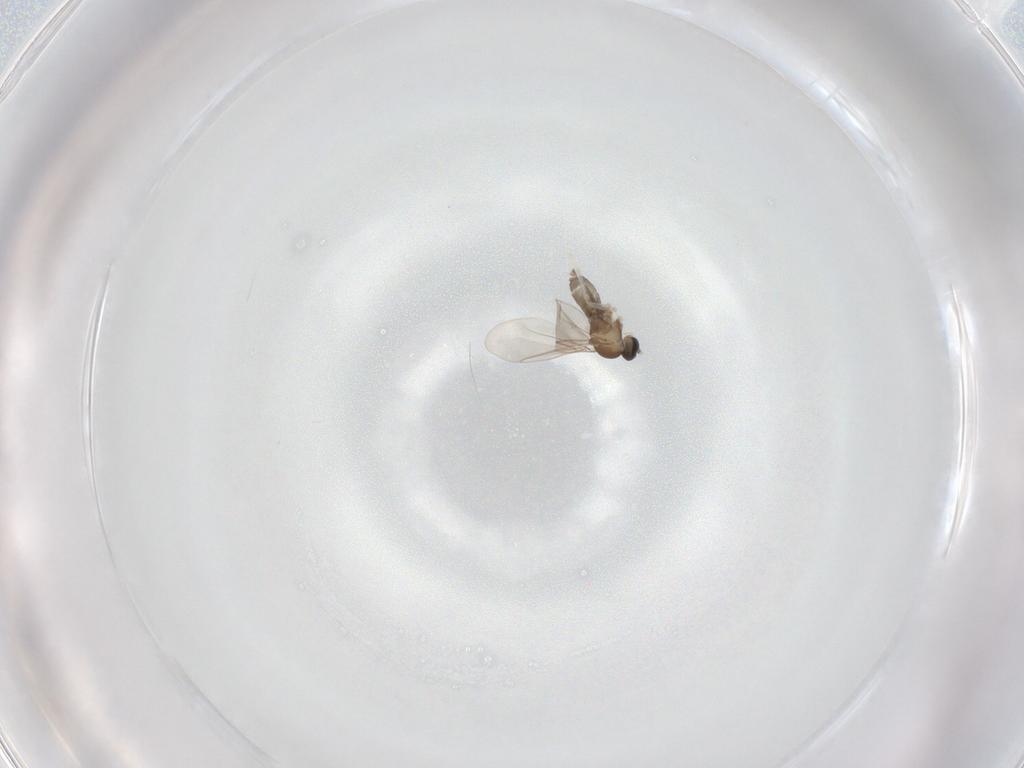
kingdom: Animalia
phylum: Arthropoda
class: Insecta
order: Diptera
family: Cecidomyiidae
